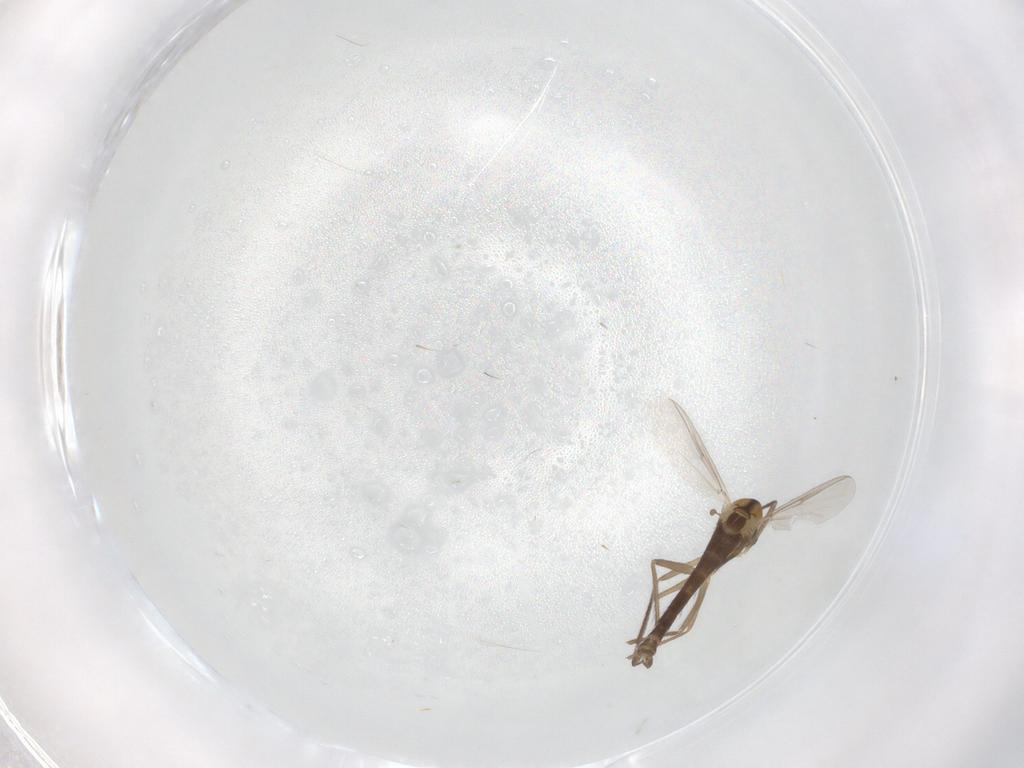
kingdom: Animalia
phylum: Arthropoda
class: Insecta
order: Diptera
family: Chironomidae
